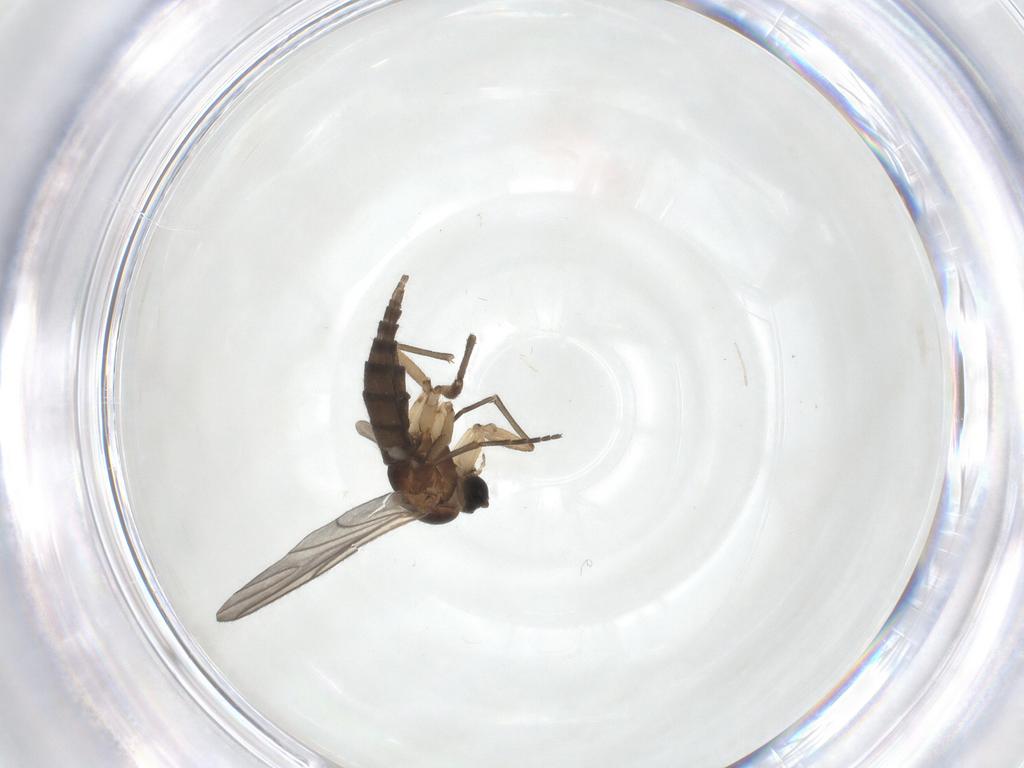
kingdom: Animalia
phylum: Arthropoda
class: Insecta
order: Diptera
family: Sciaridae
